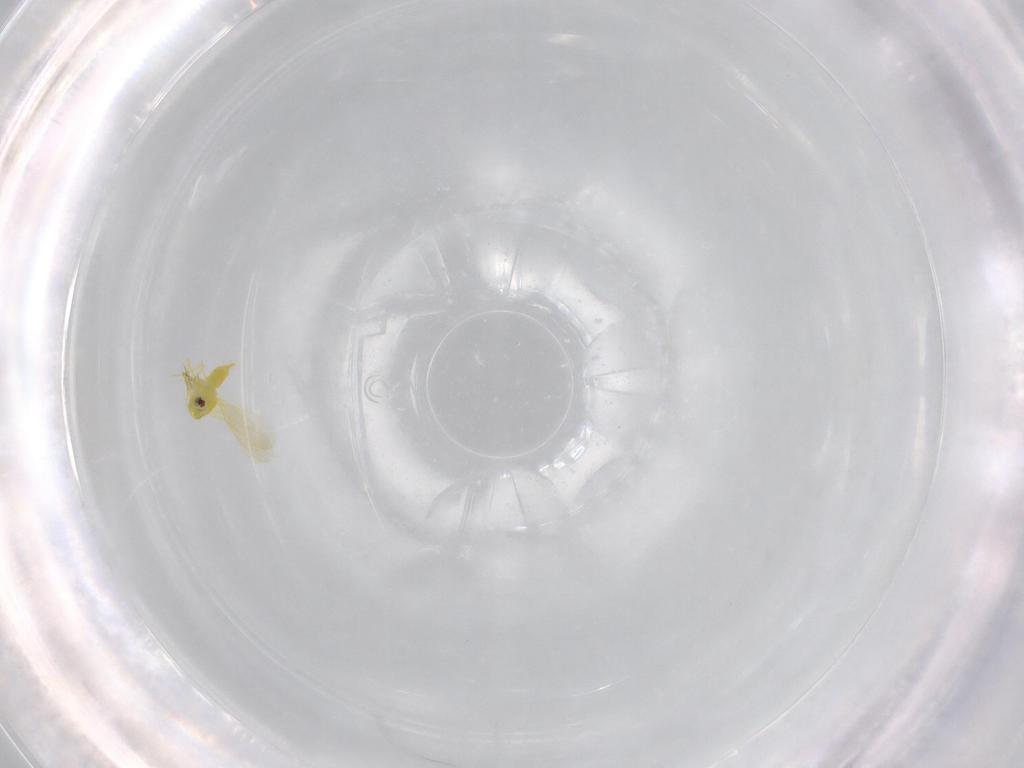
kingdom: Animalia
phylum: Arthropoda
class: Insecta
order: Hemiptera
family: Aleyrodidae
